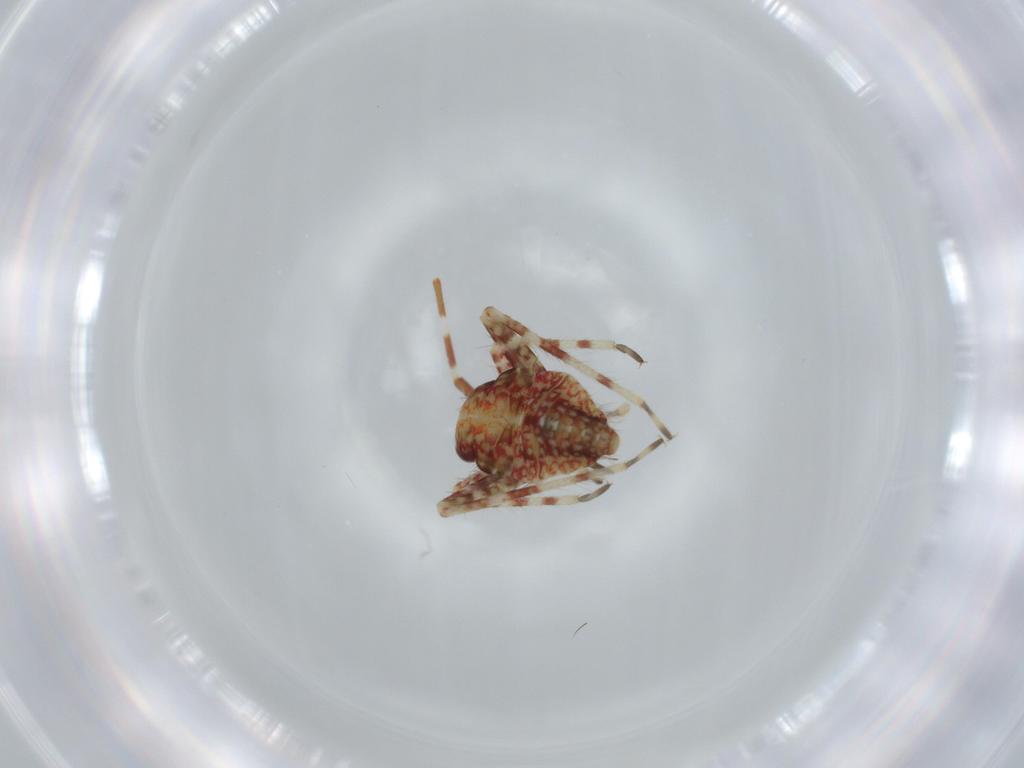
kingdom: Animalia
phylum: Arthropoda
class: Insecta
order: Hemiptera
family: Miridae
